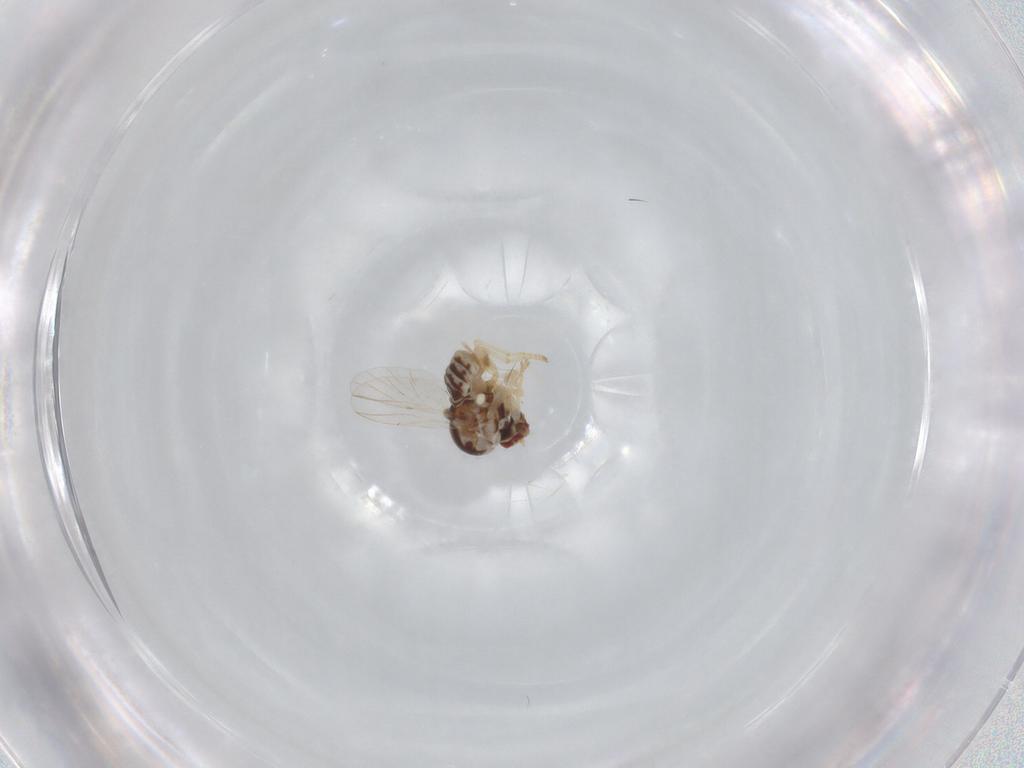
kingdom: Animalia
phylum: Arthropoda
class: Insecta
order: Diptera
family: Bombyliidae
